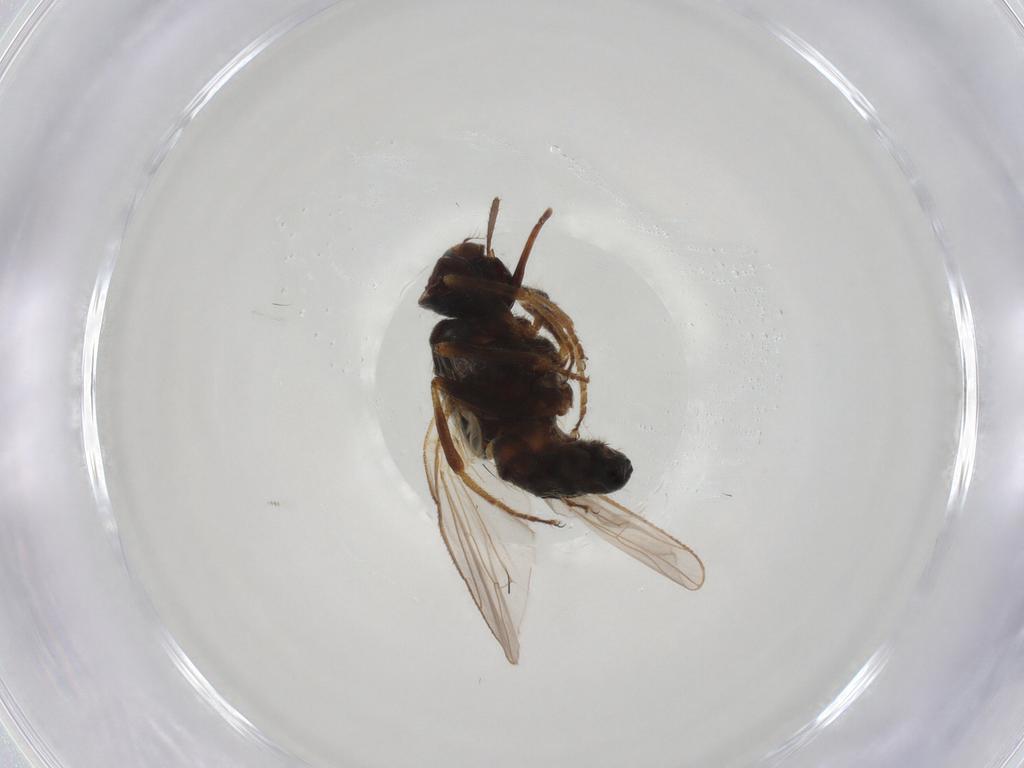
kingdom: Animalia
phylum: Arthropoda
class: Insecta
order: Diptera
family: Muscidae
